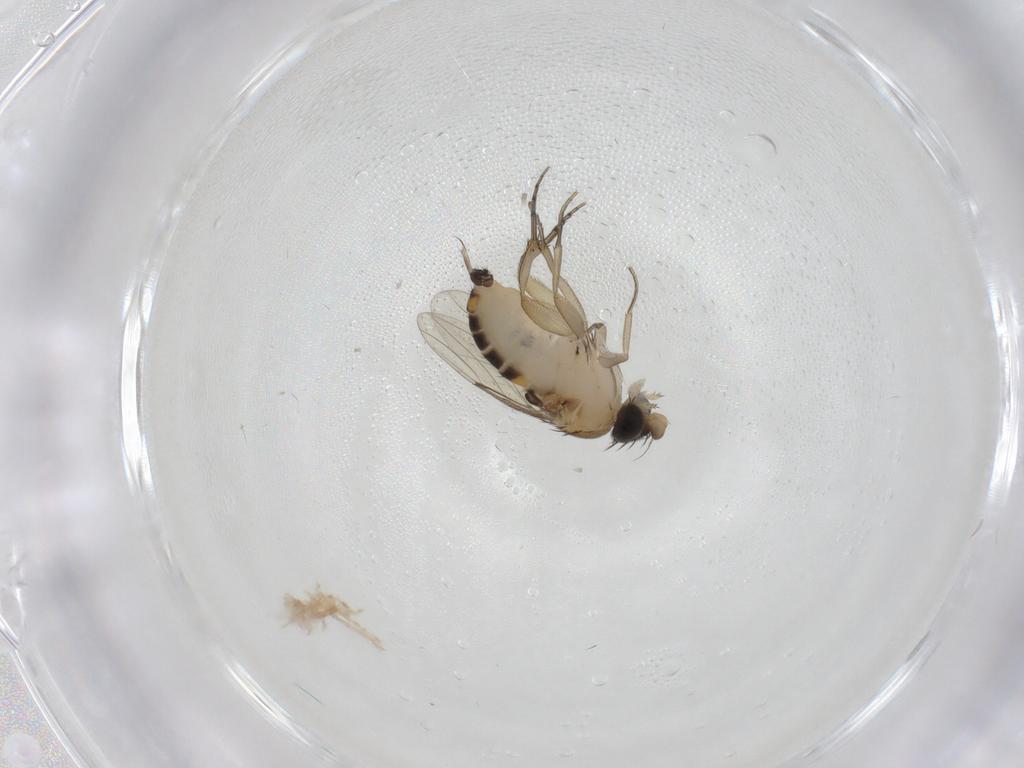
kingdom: Animalia
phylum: Arthropoda
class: Insecta
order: Diptera
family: Phoridae
